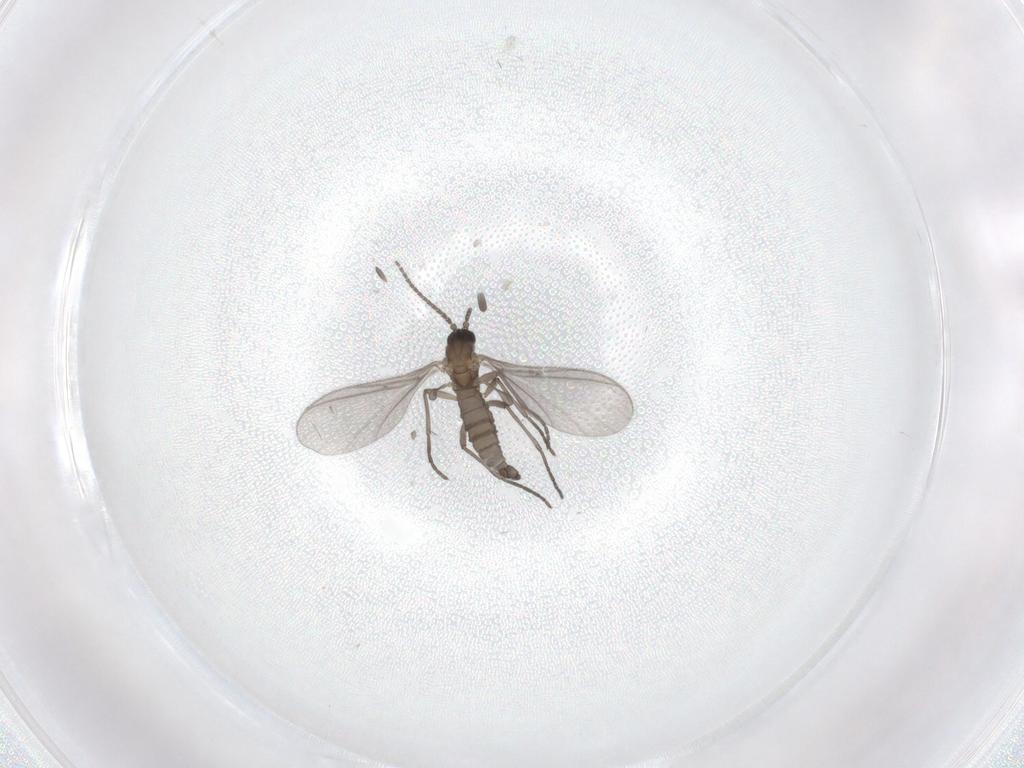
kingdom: Animalia
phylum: Arthropoda
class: Insecta
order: Diptera
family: Sciaridae
